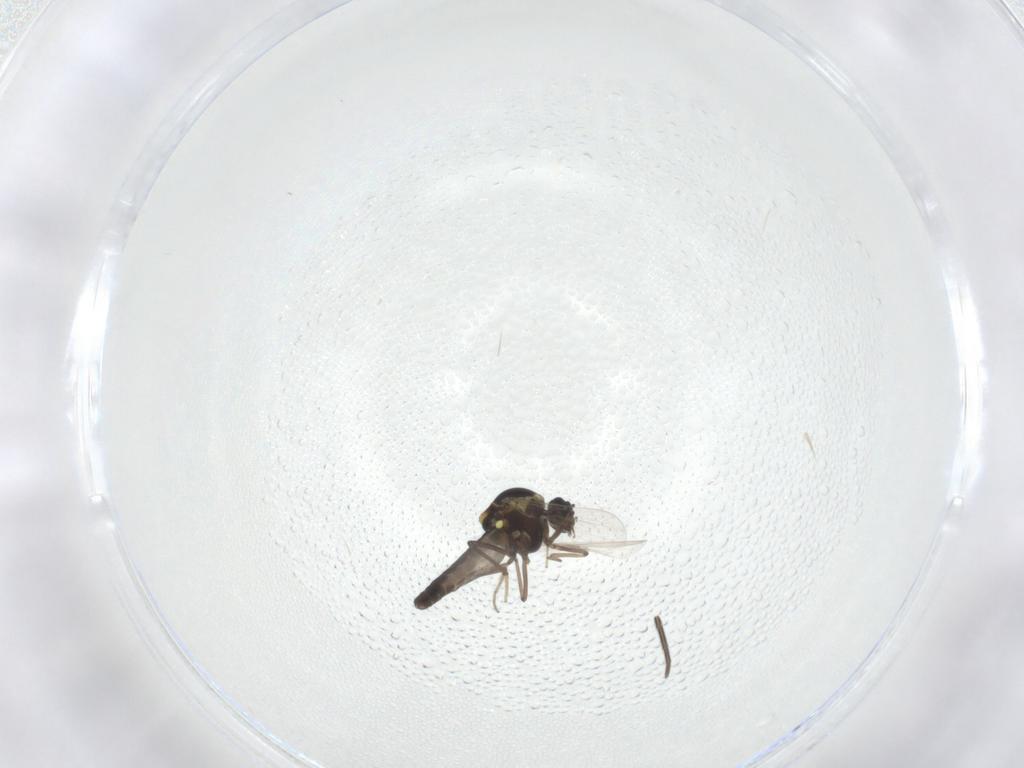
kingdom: Animalia
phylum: Arthropoda
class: Insecta
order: Diptera
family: Ceratopogonidae
